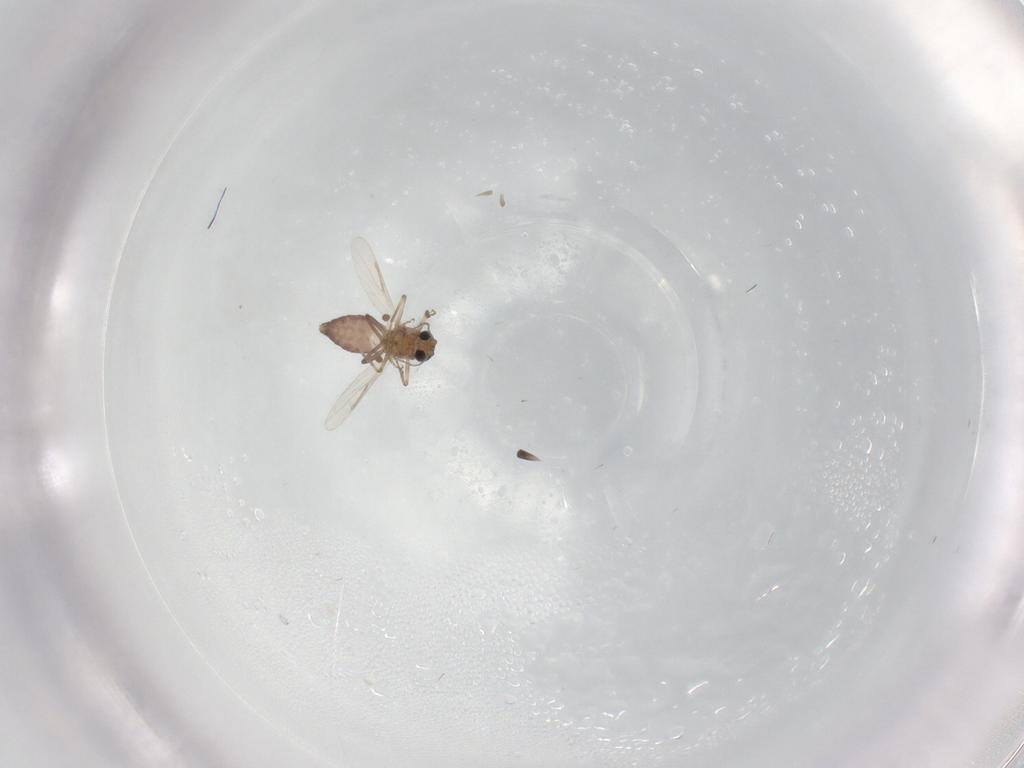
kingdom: Animalia
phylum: Arthropoda
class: Insecta
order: Diptera
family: Ceratopogonidae
